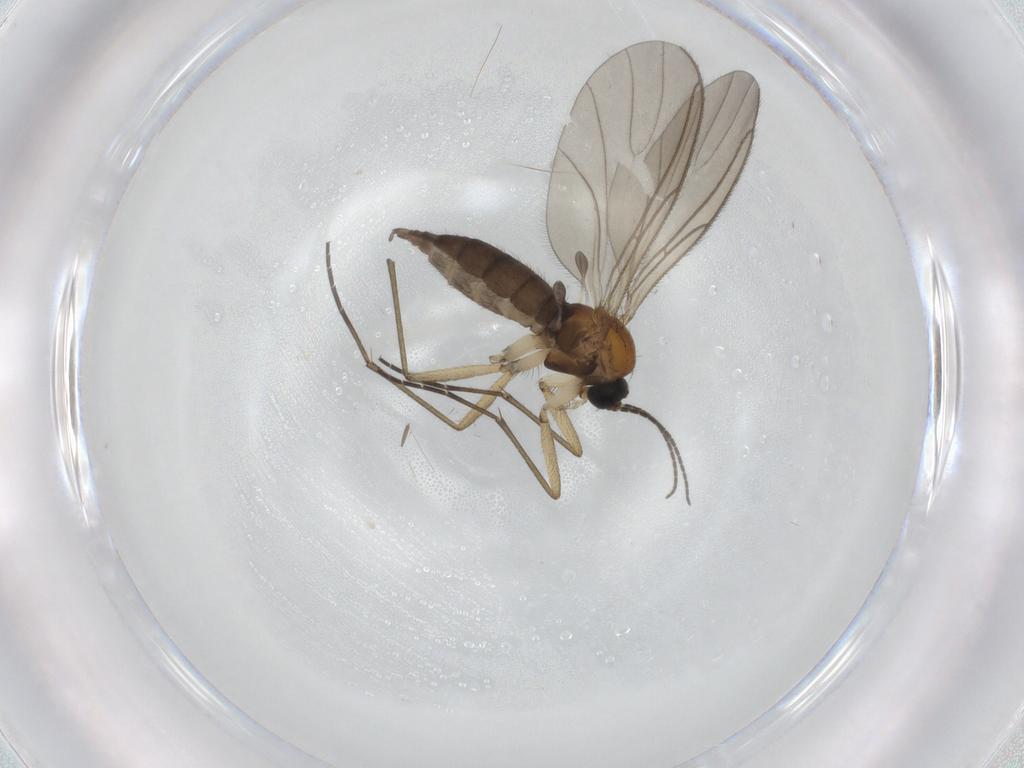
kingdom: Animalia
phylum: Arthropoda
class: Insecta
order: Diptera
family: Sciaridae
